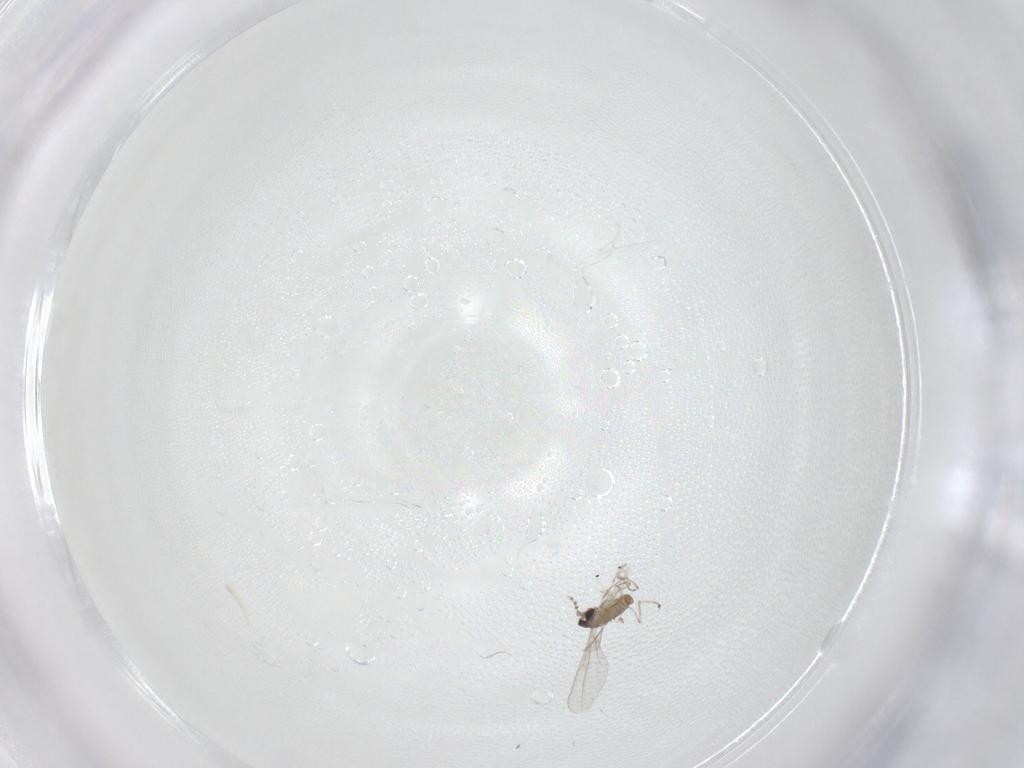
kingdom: Animalia
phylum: Arthropoda
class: Insecta
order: Diptera
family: Cecidomyiidae
